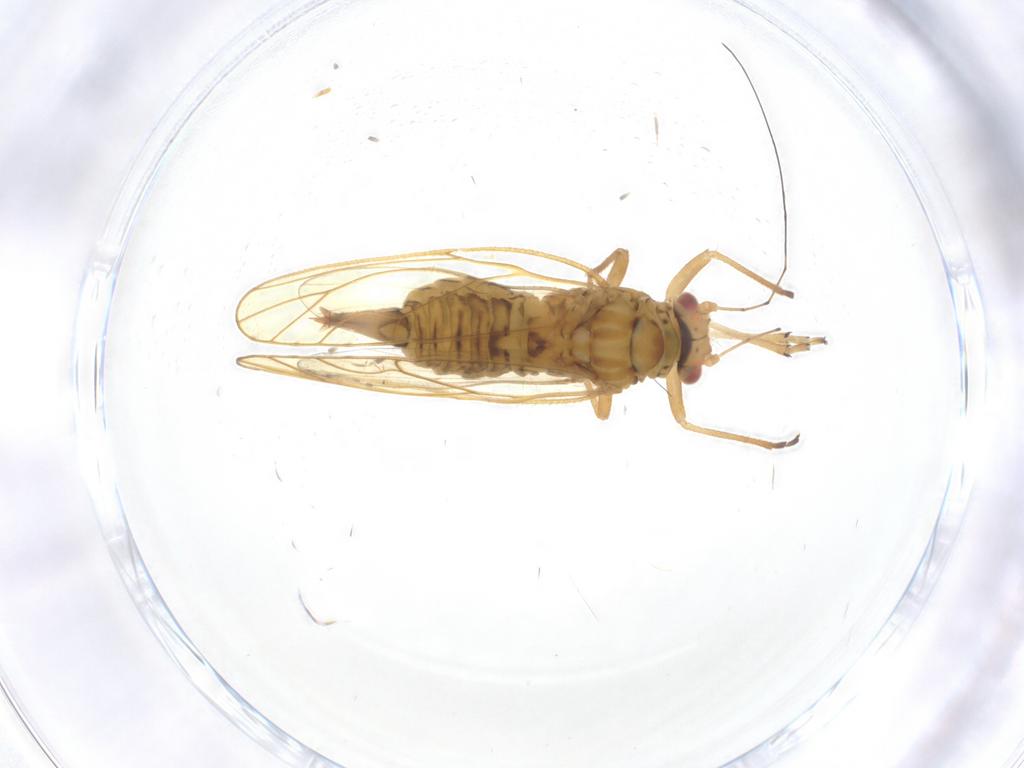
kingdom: Animalia
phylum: Arthropoda
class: Insecta
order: Hemiptera
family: Psyllidae
